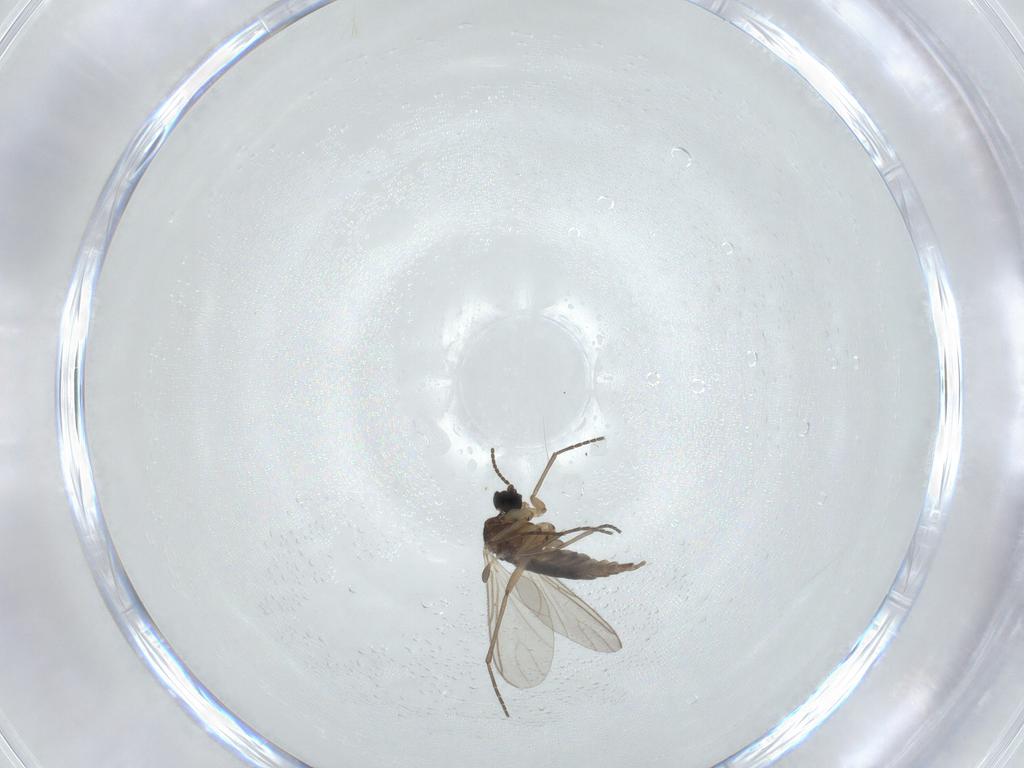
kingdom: Animalia
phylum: Arthropoda
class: Insecta
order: Diptera
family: Sciaridae
